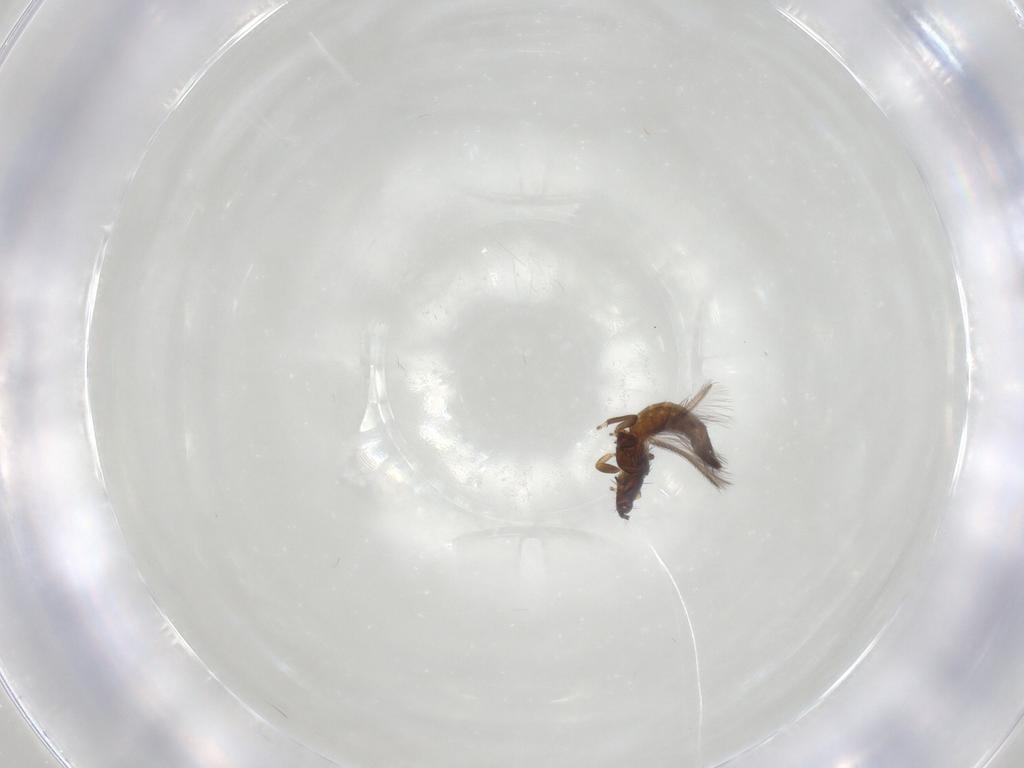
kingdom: Animalia
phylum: Arthropoda
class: Insecta
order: Thysanoptera
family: Thripidae
